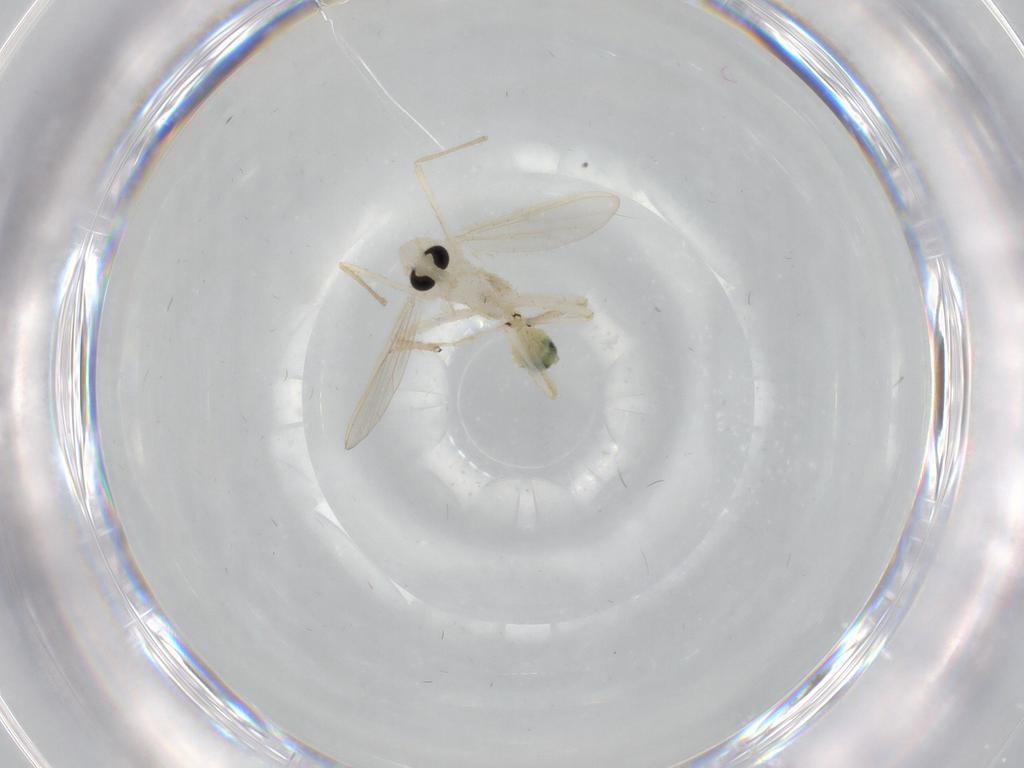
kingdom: Animalia
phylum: Arthropoda
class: Insecta
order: Diptera
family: Chironomidae
